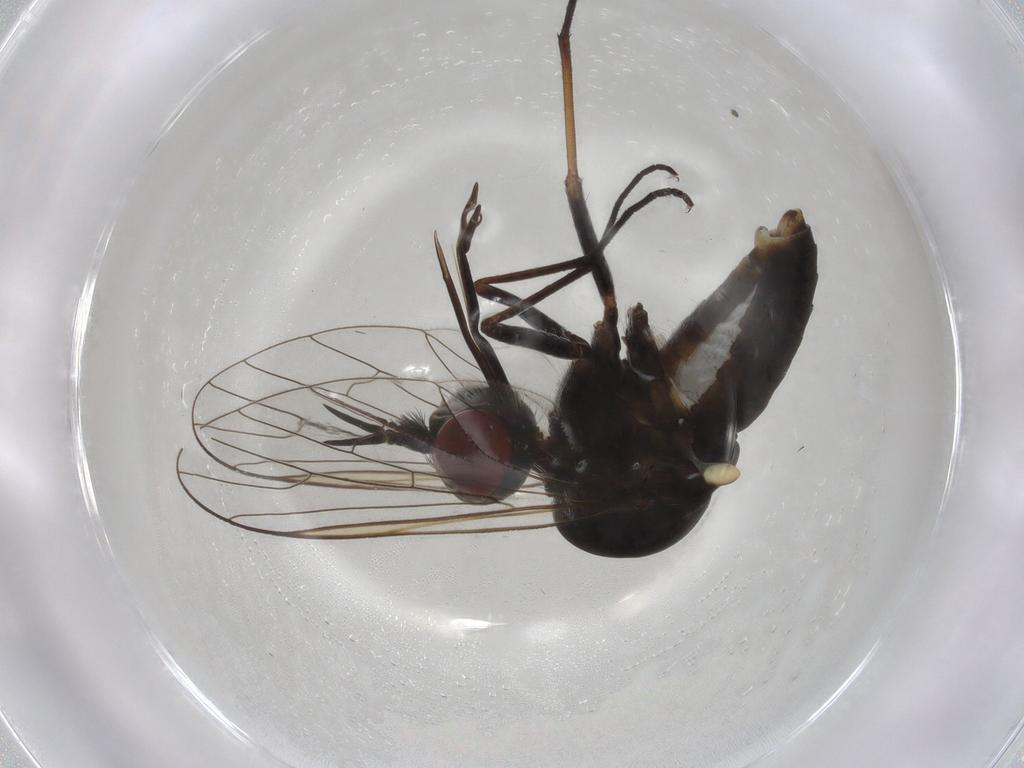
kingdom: Animalia
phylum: Arthropoda
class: Insecta
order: Diptera
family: Bombyliidae
